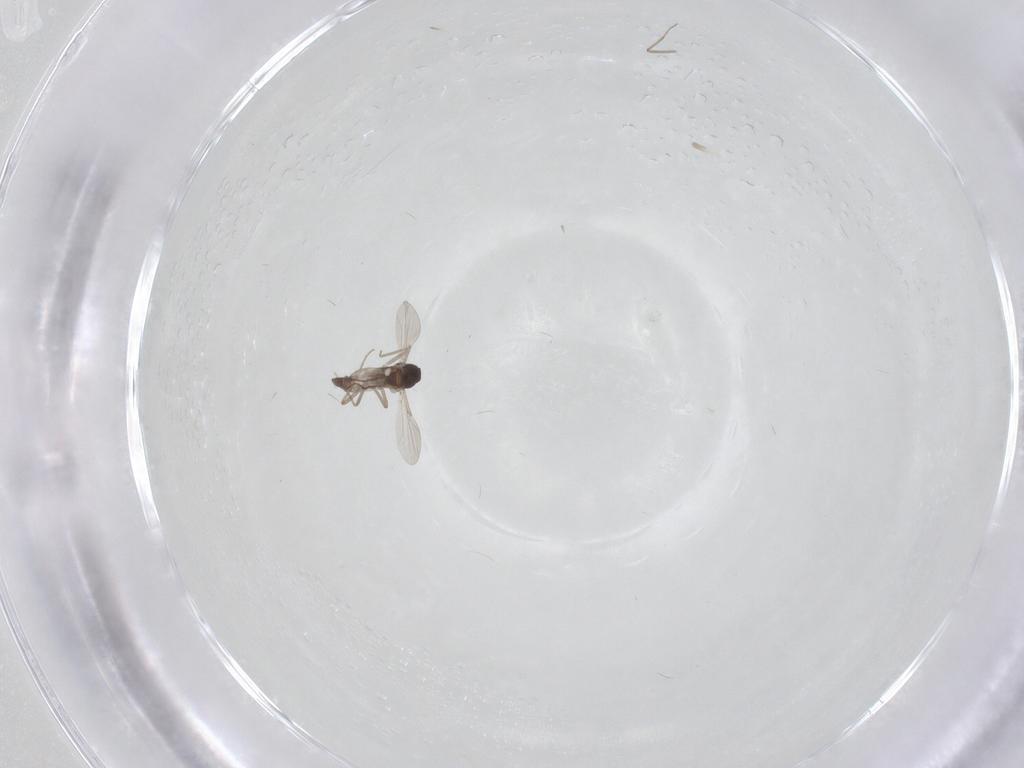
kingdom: Animalia
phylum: Arthropoda
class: Insecta
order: Diptera
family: Ceratopogonidae
